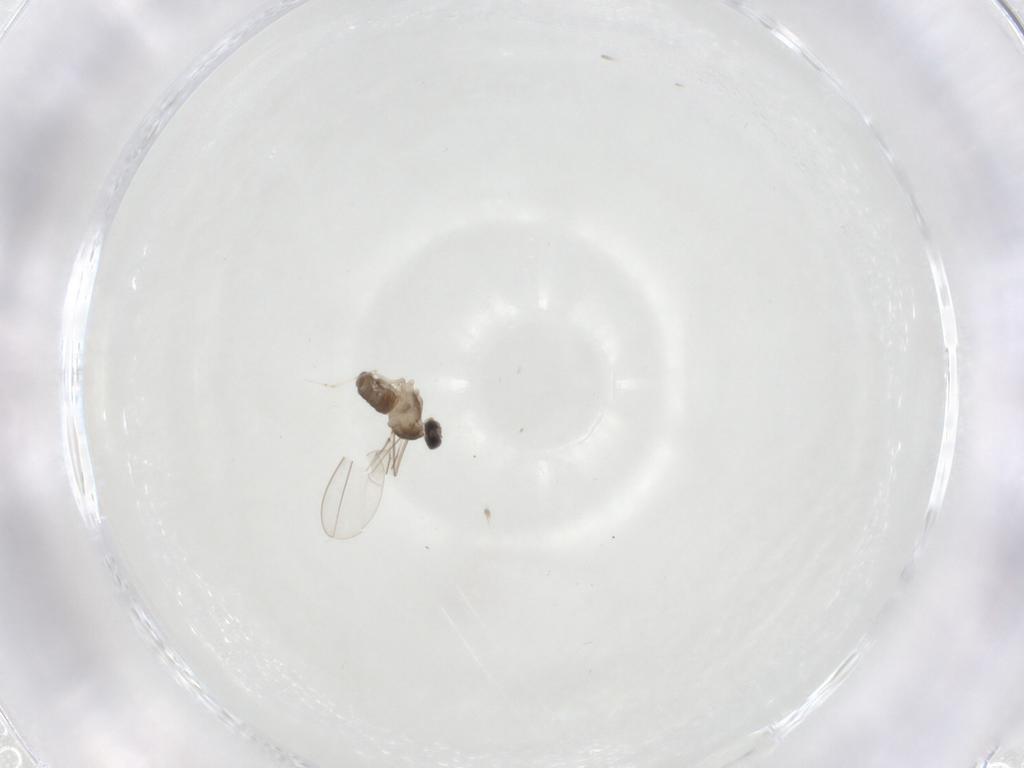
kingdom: Animalia
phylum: Arthropoda
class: Insecta
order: Diptera
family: Cecidomyiidae
